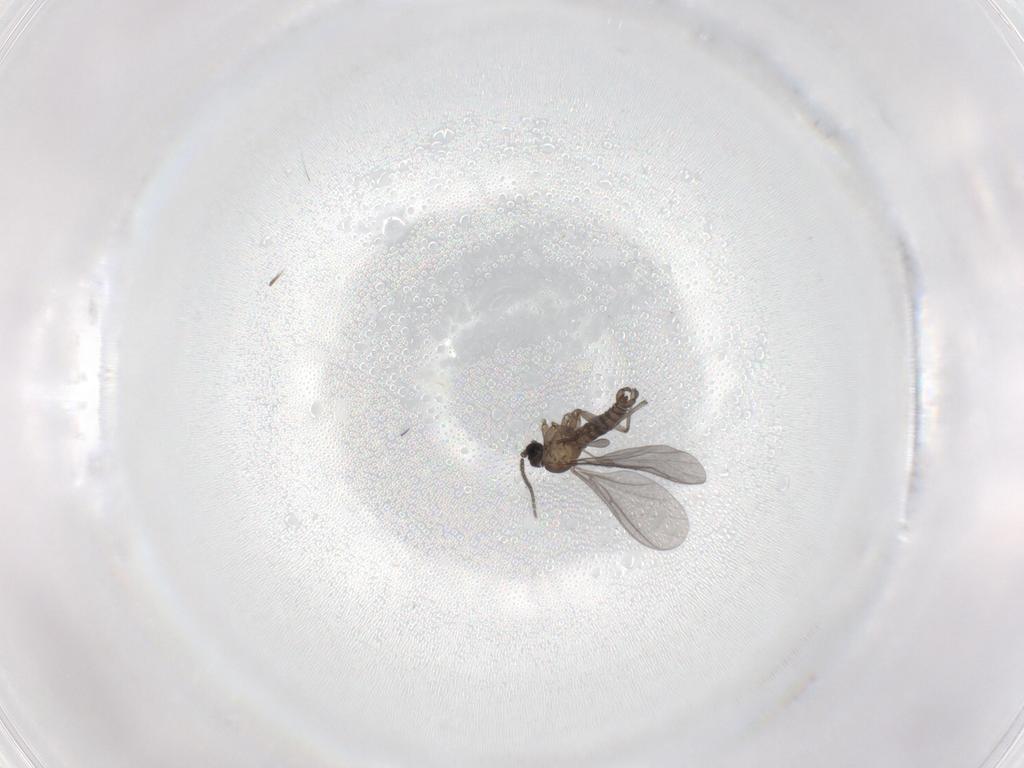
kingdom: Animalia
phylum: Arthropoda
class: Insecta
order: Diptera
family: Sciaridae
